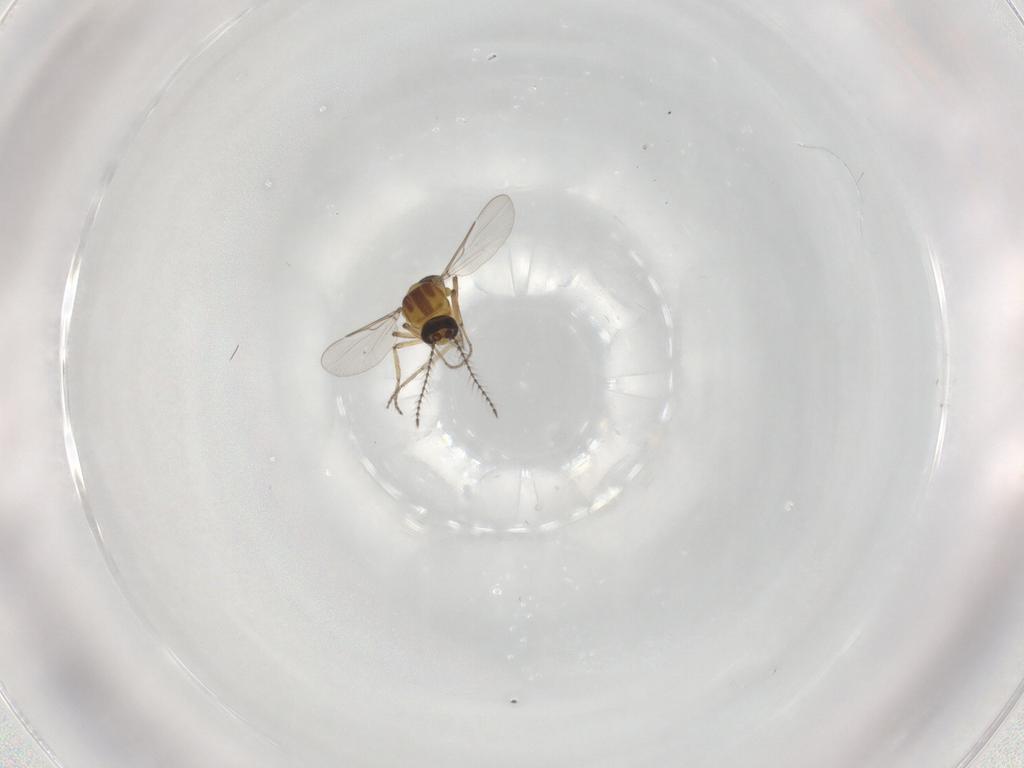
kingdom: Animalia
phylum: Arthropoda
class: Insecta
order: Diptera
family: Ceratopogonidae
